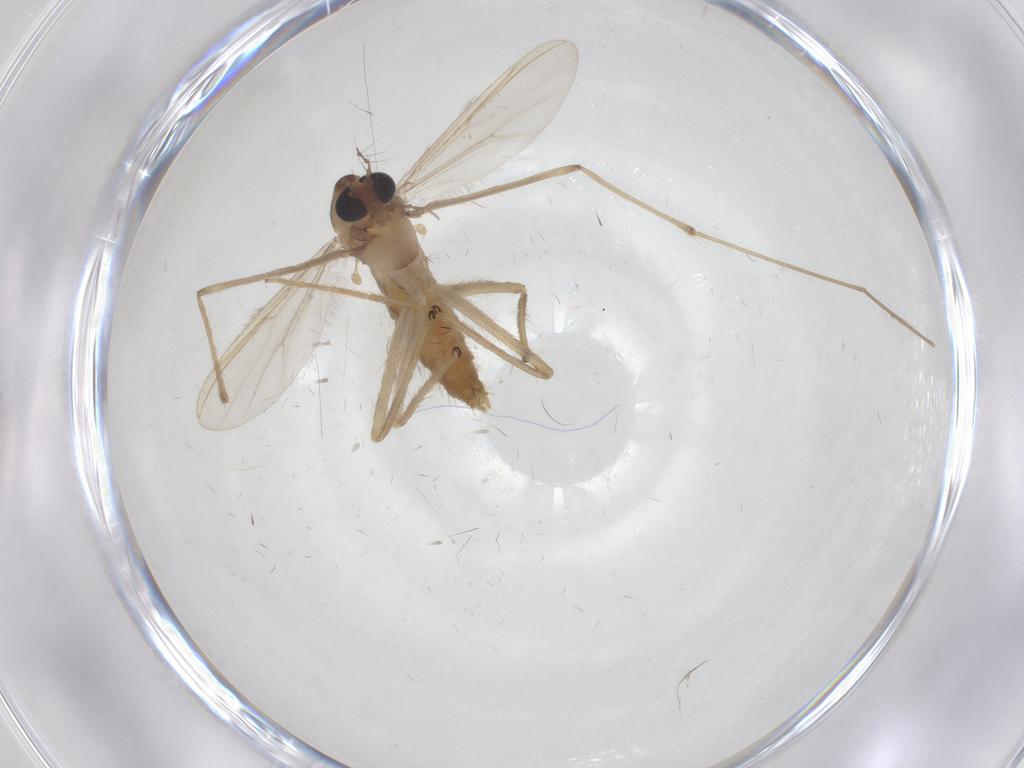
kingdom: Animalia
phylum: Arthropoda
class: Insecta
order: Diptera
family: Chironomidae
